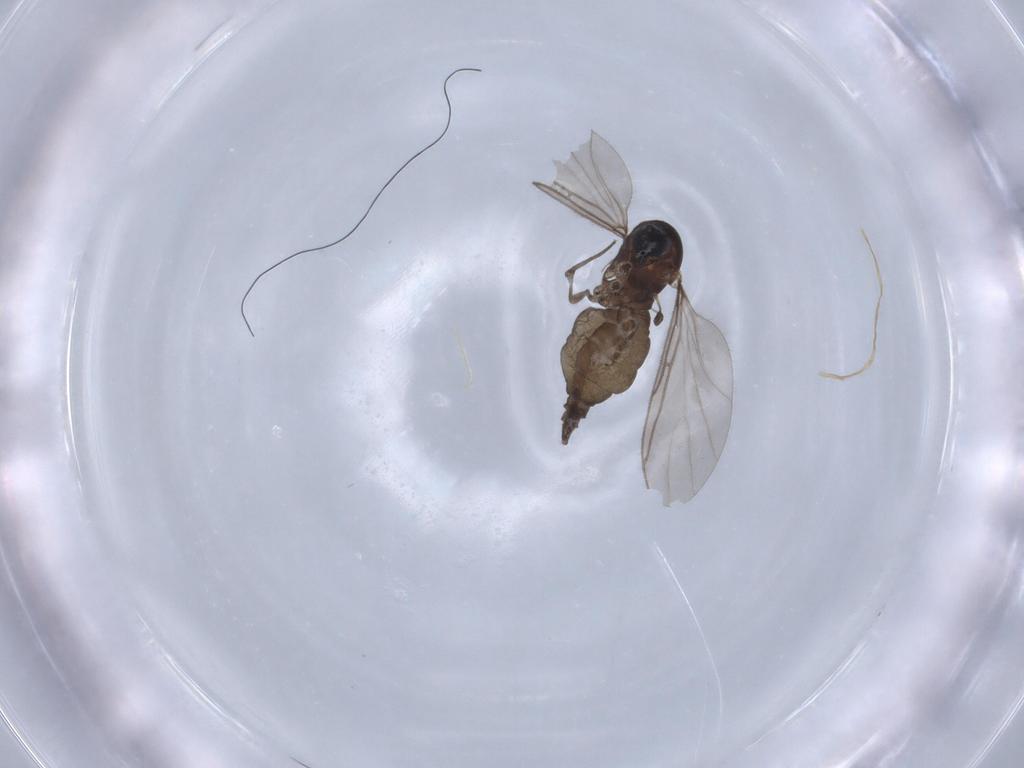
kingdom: Animalia
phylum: Arthropoda
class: Insecta
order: Diptera
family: Sciaridae
